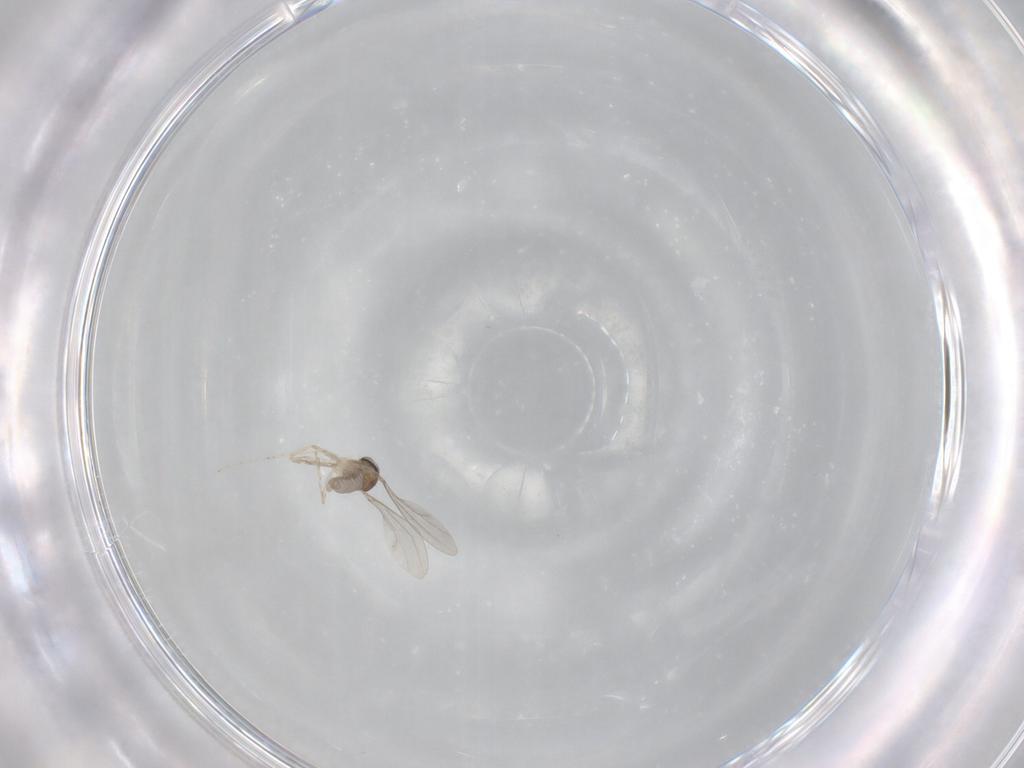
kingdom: Animalia
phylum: Arthropoda
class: Insecta
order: Diptera
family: Cecidomyiidae
